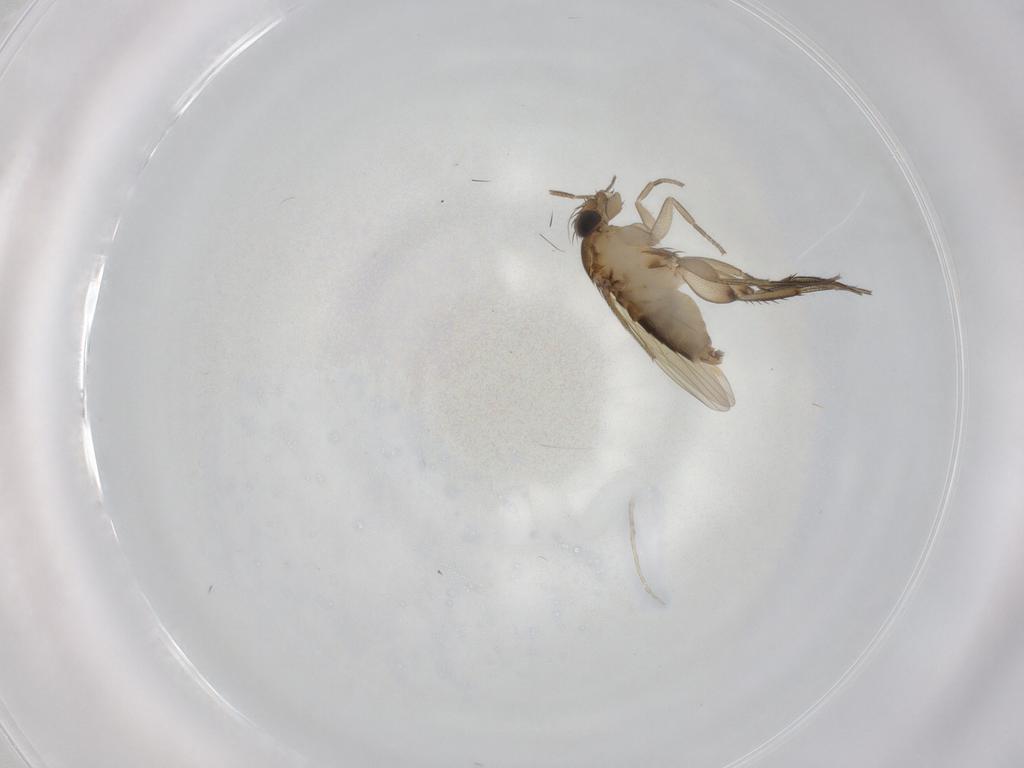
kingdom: Animalia
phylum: Arthropoda
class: Insecta
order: Diptera
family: Phoridae
